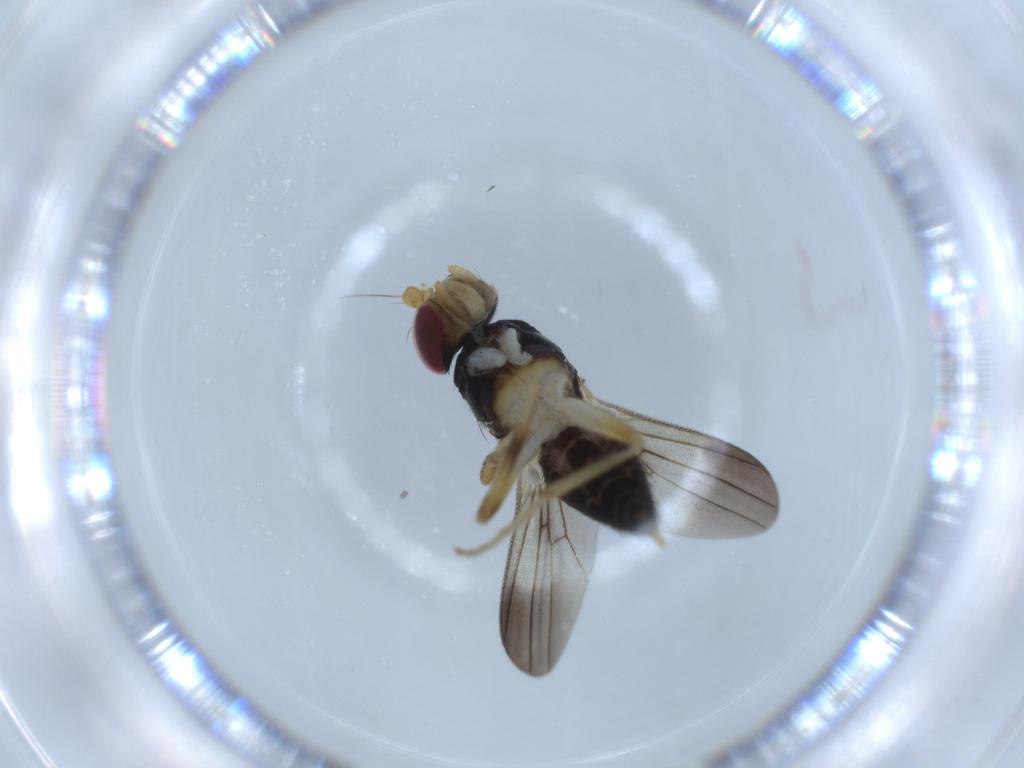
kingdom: Animalia
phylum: Arthropoda
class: Insecta
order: Diptera
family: Clusiidae
